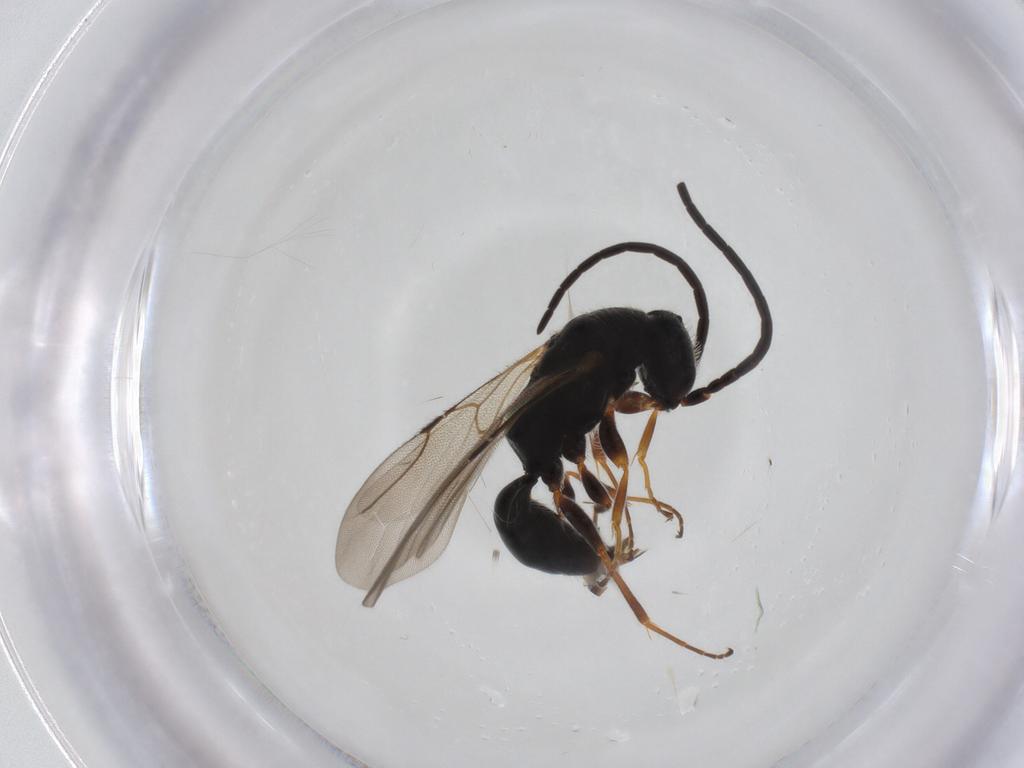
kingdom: Animalia
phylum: Arthropoda
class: Insecta
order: Hymenoptera
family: Bethylidae
